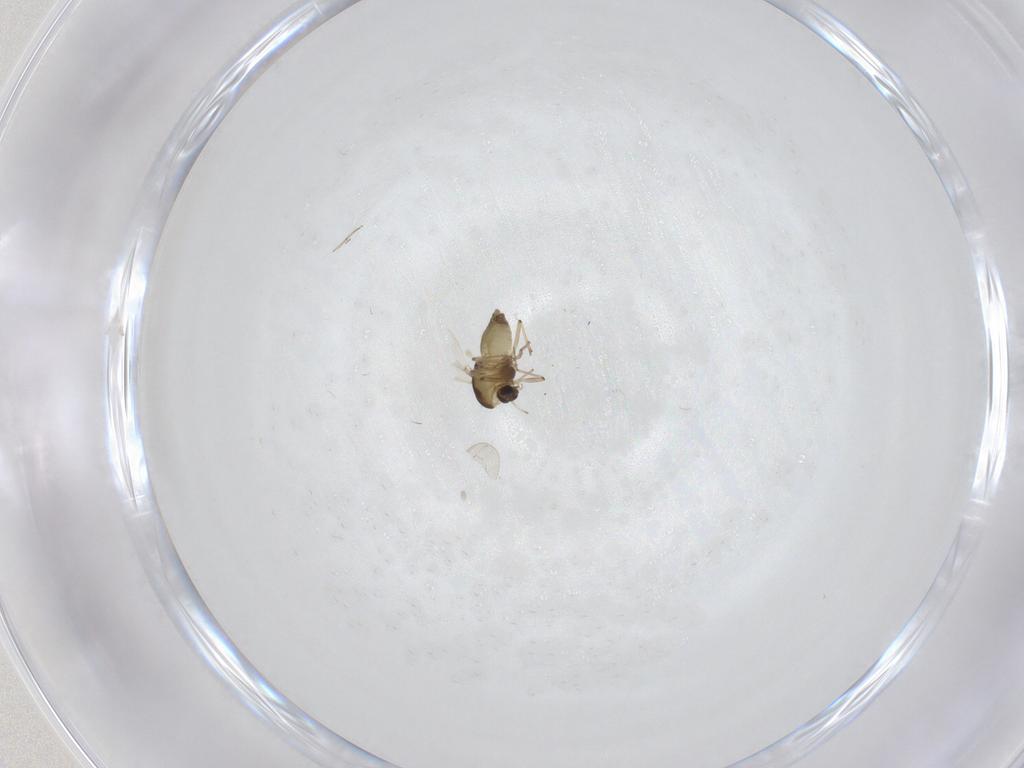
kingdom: Animalia
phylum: Arthropoda
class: Insecta
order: Diptera
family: Chironomidae
